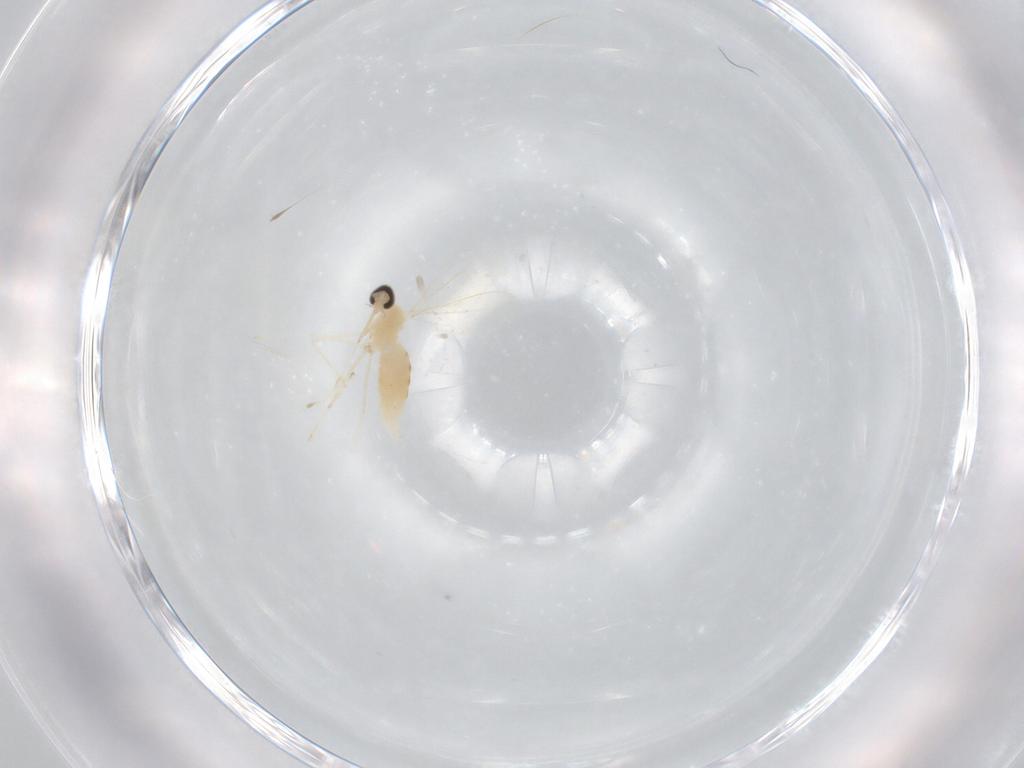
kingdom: Animalia
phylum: Arthropoda
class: Insecta
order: Diptera
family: Cecidomyiidae
